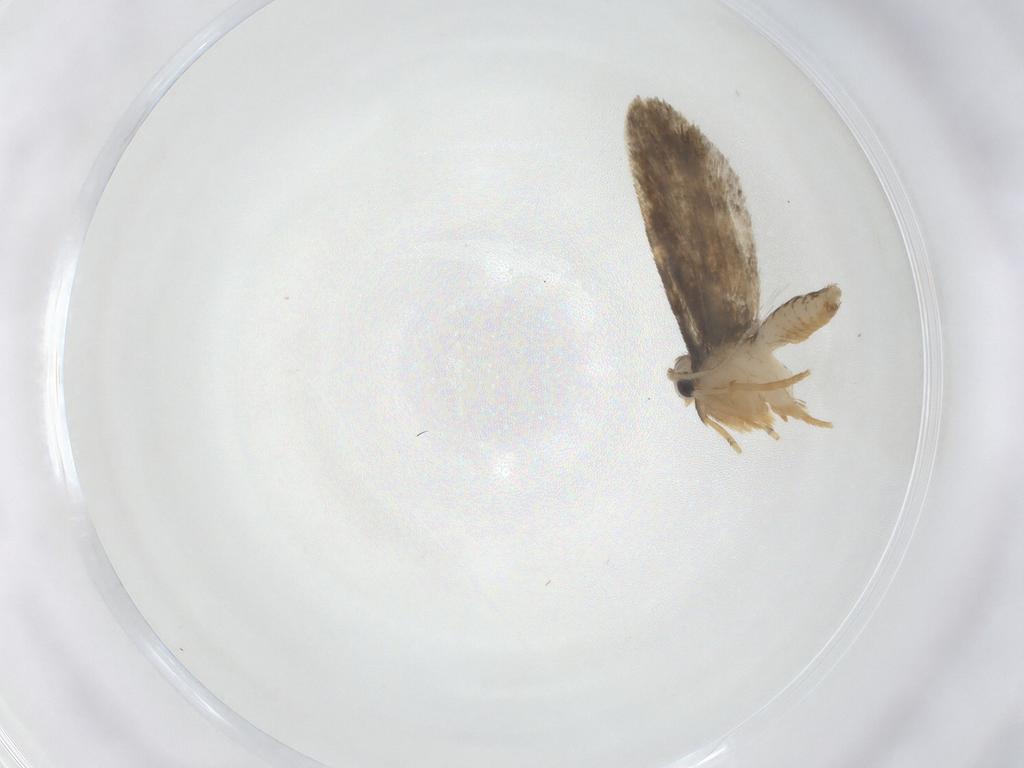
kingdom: Animalia
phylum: Arthropoda
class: Insecta
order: Lepidoptera
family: Psychidae
